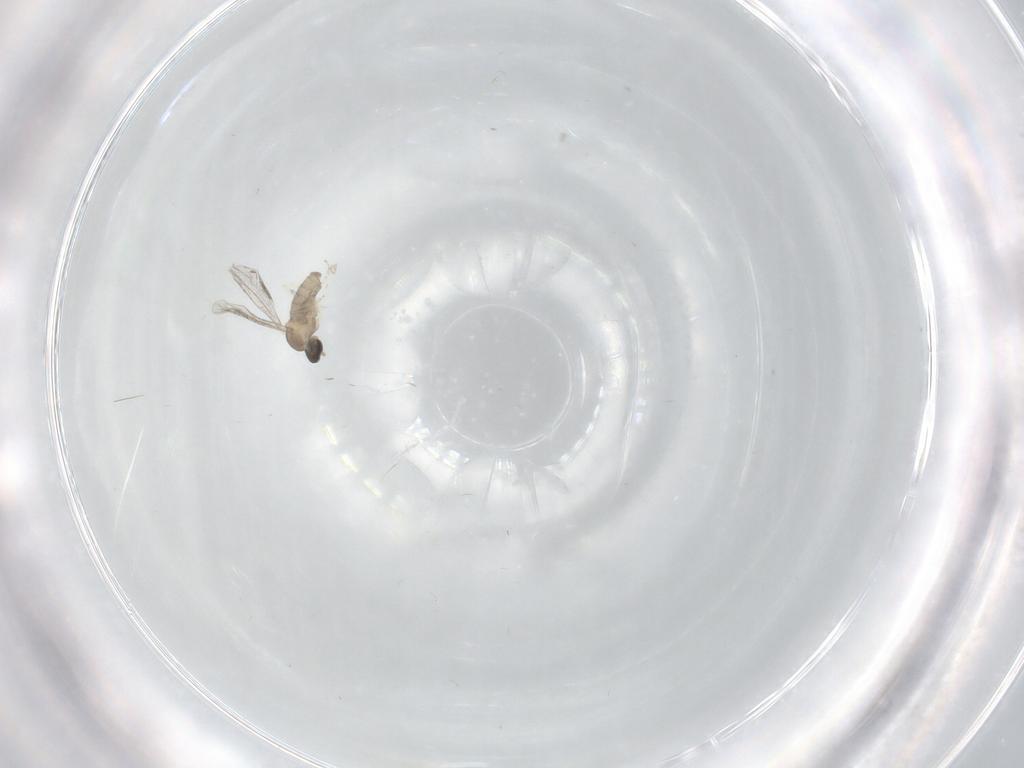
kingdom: Animalia
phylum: Arthropoda
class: Insecta
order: Diptera
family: Cecidomyiidae
